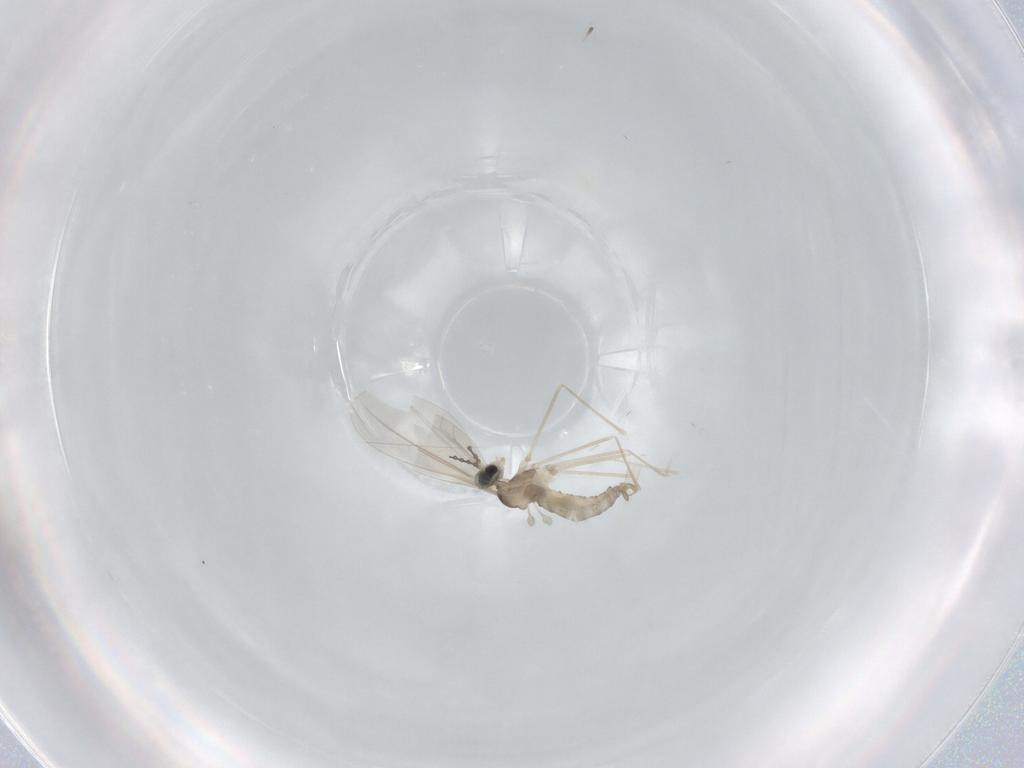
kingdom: Animalia
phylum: Arthropoda
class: Insecta
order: Diptera
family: Cecidomyiidae
